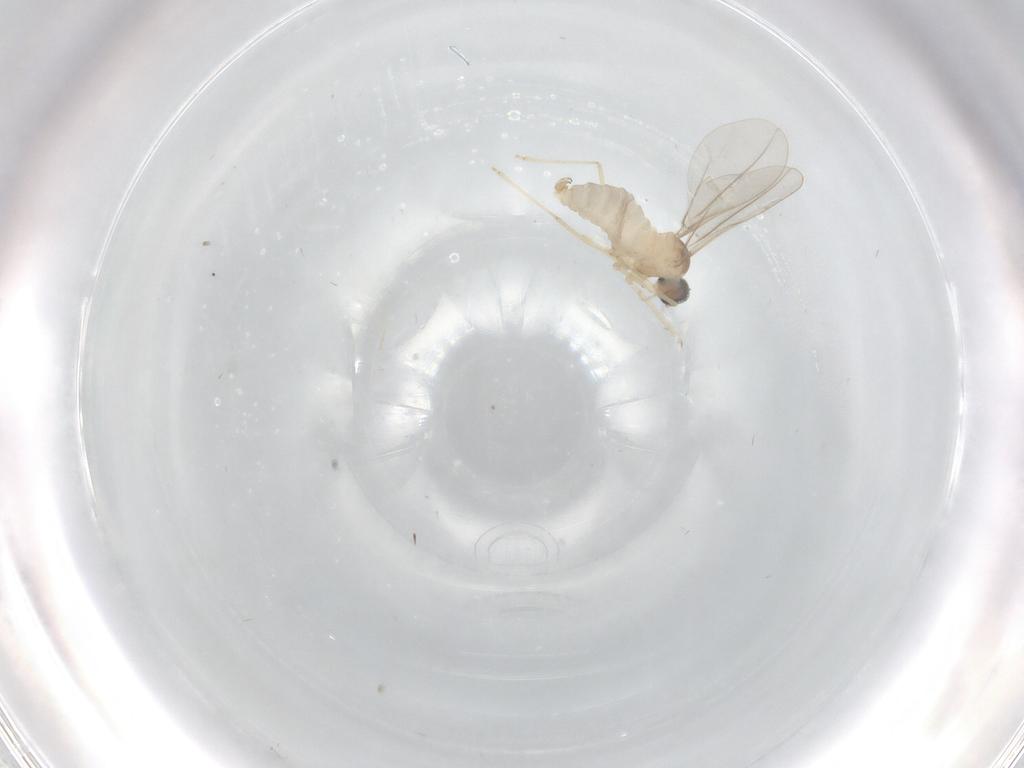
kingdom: Animalia
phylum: Arthropoda
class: Insecta
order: Diptera
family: Cecidomyiidae
